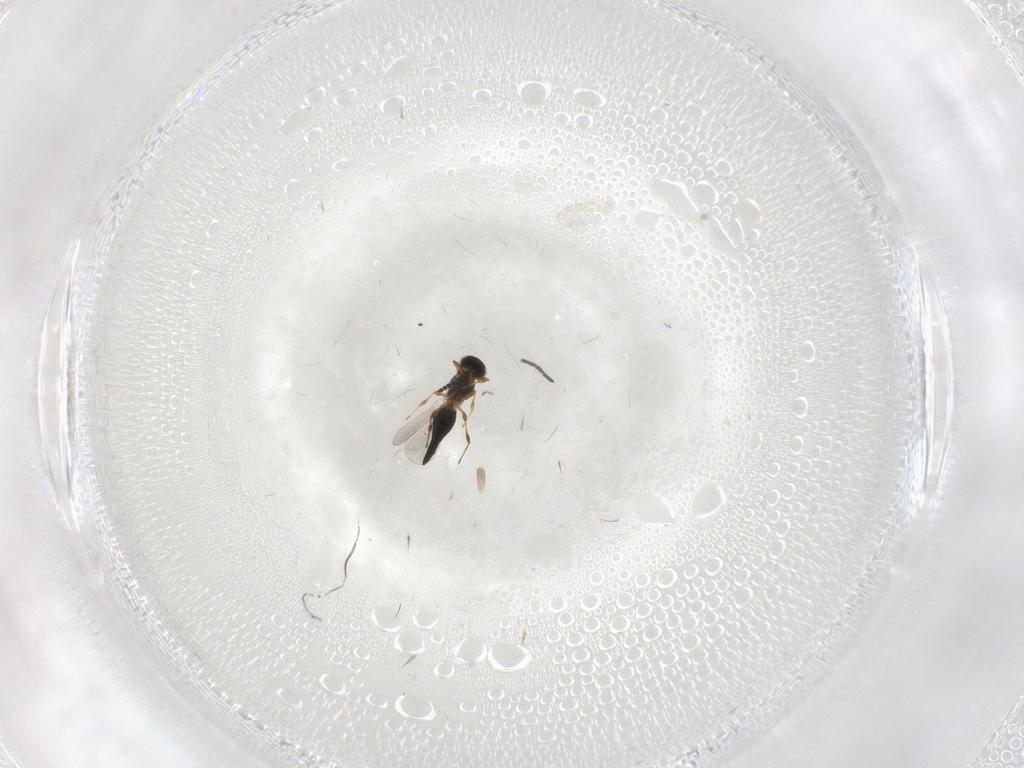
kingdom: Animalia
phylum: Arthropoda
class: Insecta
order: Hymenoptera
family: Platygastridae
